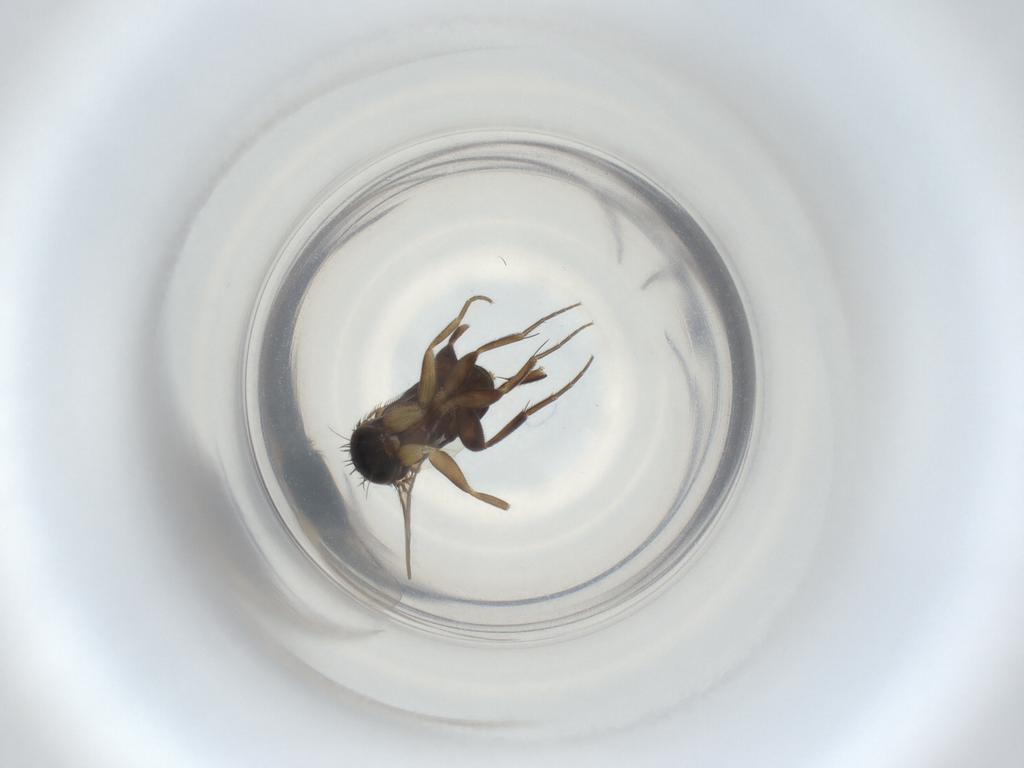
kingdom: Animalia
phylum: Arthropoda
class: Insecta
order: Diptera
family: Phoridae
